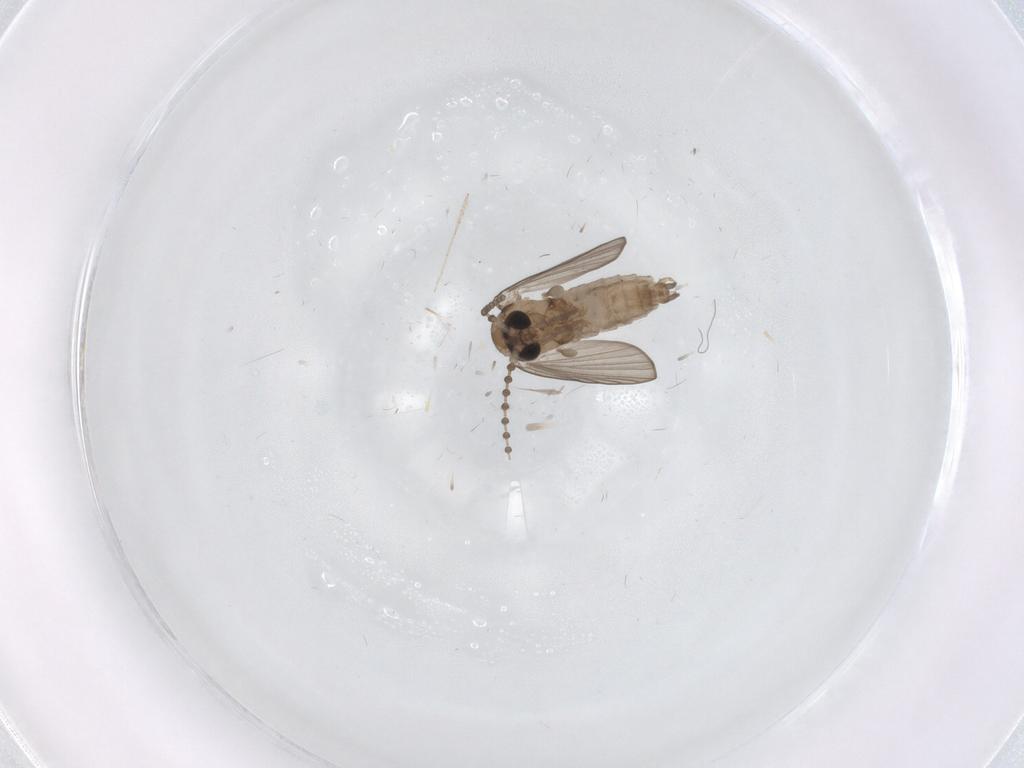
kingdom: Animalia
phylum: Arthropoda
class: Insecta
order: Diptera
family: Psychodidae
